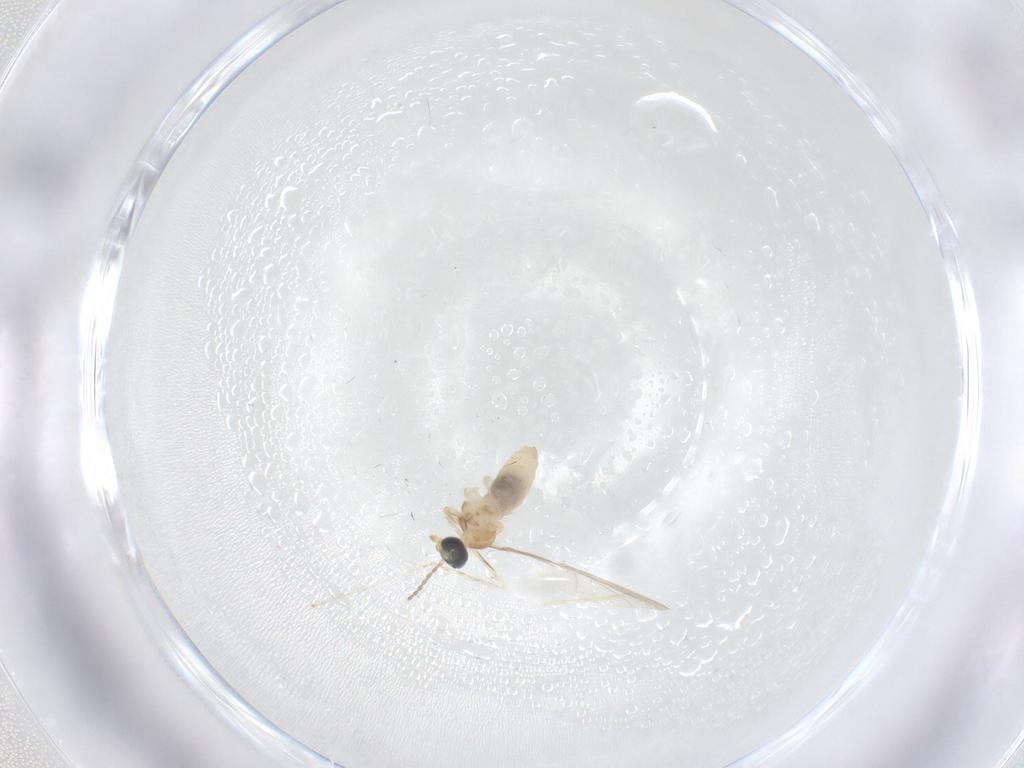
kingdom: Animalia
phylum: Arthropoda
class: Insecta
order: Diptera
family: Cecidomyiidae
